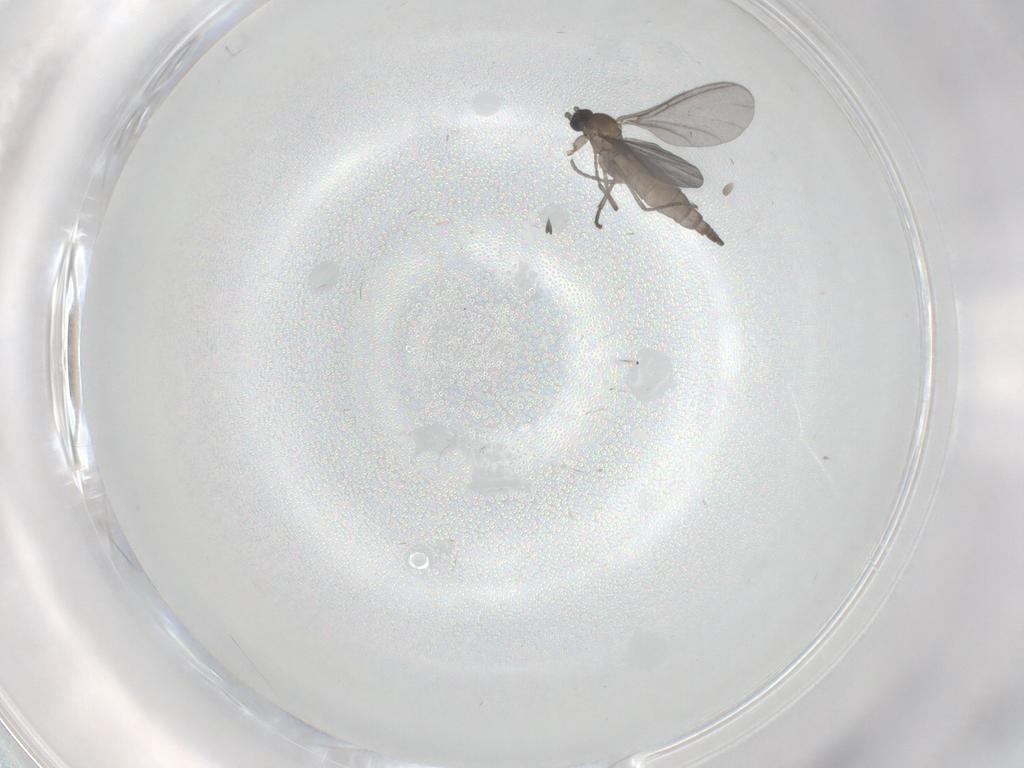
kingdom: Animalia
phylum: Arthropoda
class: Insecta
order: Diptera
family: Sciaridae
